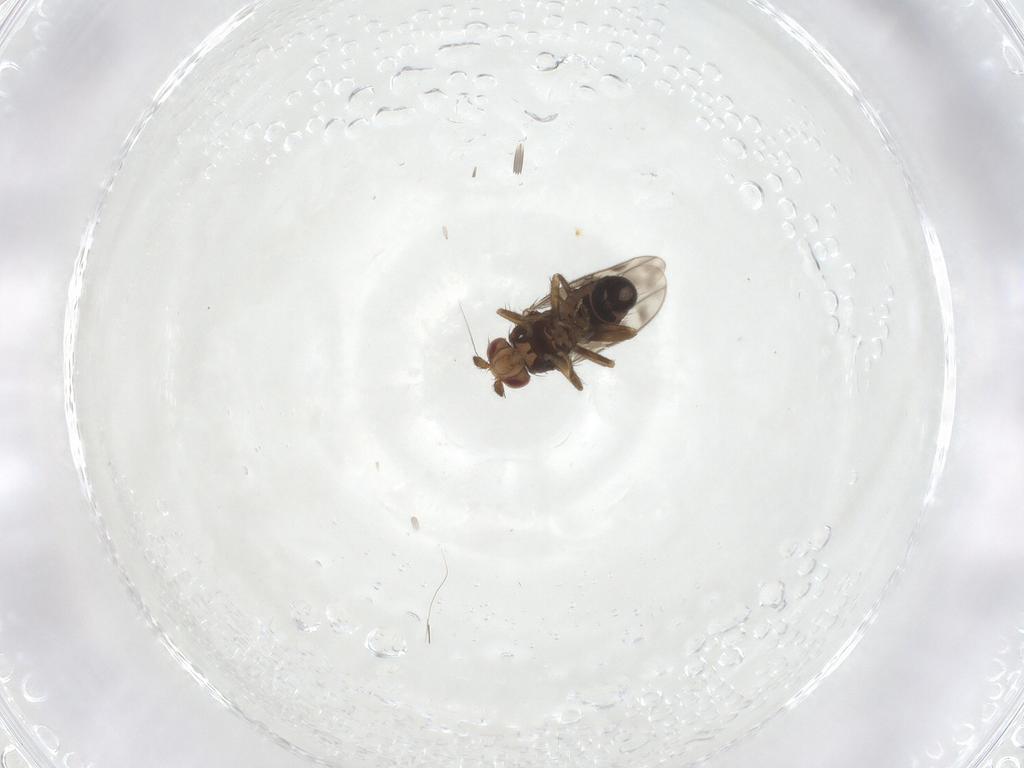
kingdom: Animalia
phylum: Arthropoda
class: Insecta
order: Diptera
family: Sphaeroceridae
